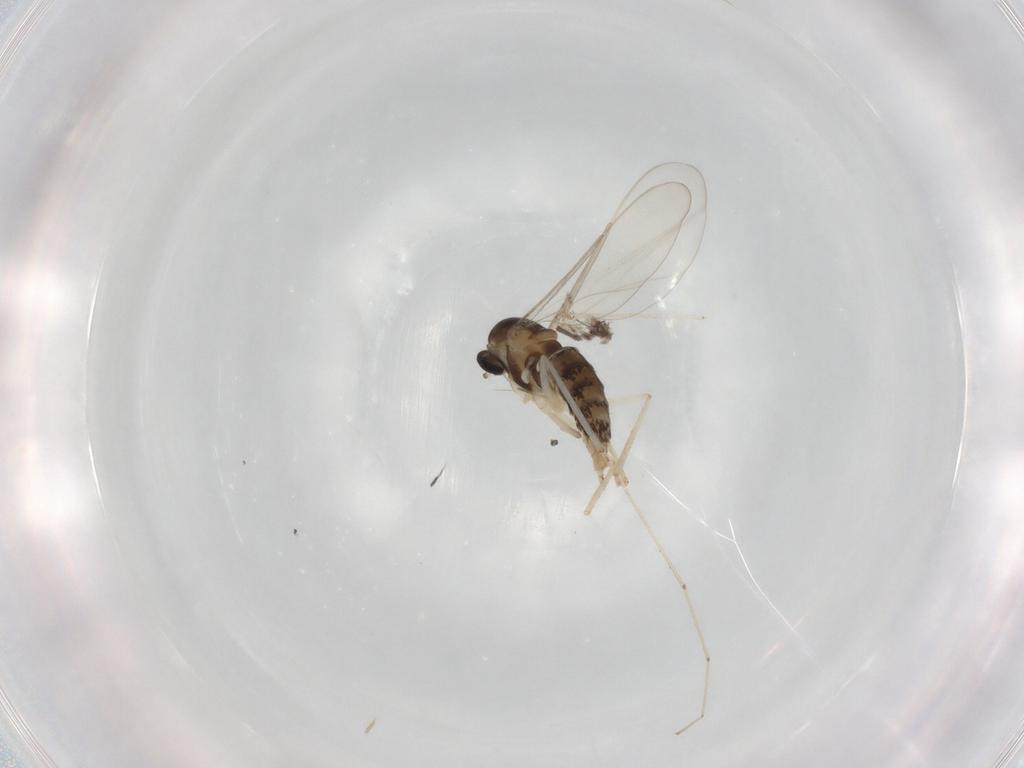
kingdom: Animalia
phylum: Arthropoda
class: Insecta
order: Diptera
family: Cecidomyiidae
